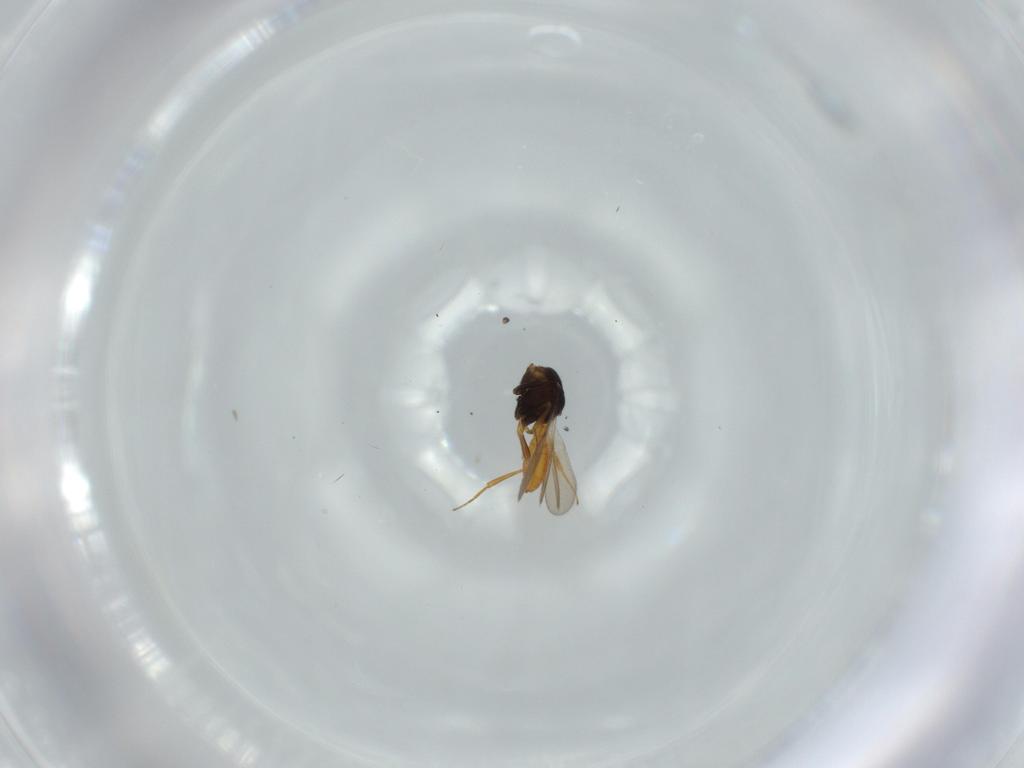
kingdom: Animalia
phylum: Arthropoda
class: Insecta
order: Hymenoptera
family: Scelionidae
